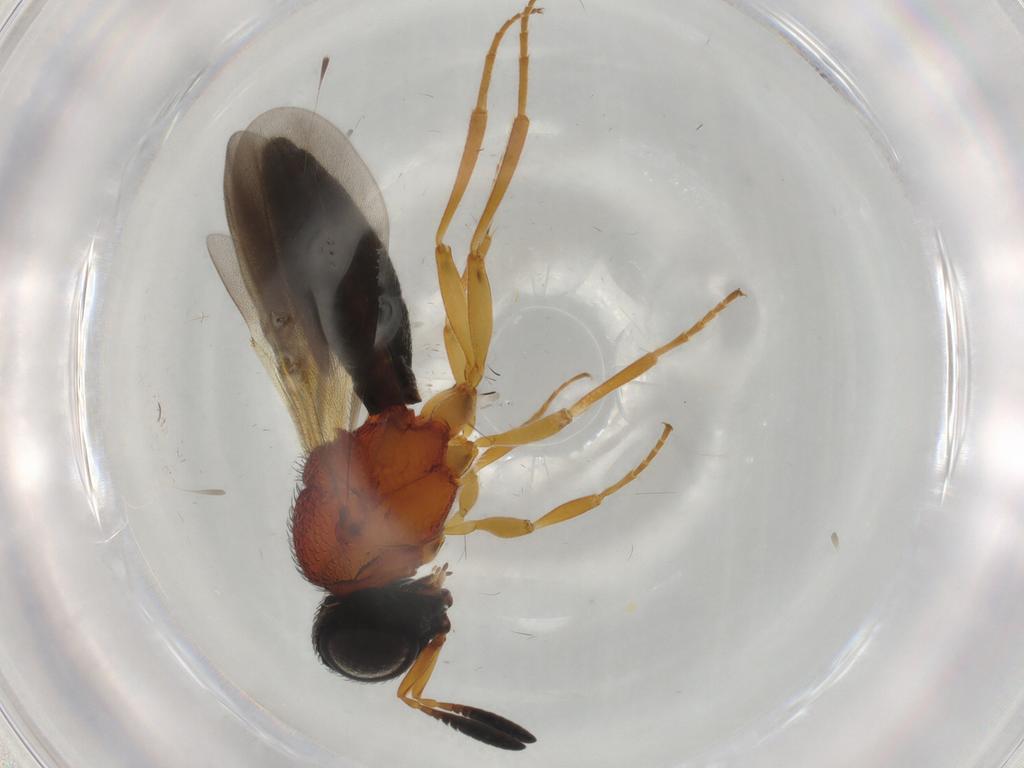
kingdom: Animalia
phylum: Arthropoda
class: Insecta
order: Hymenoptera
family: Scelionidae
